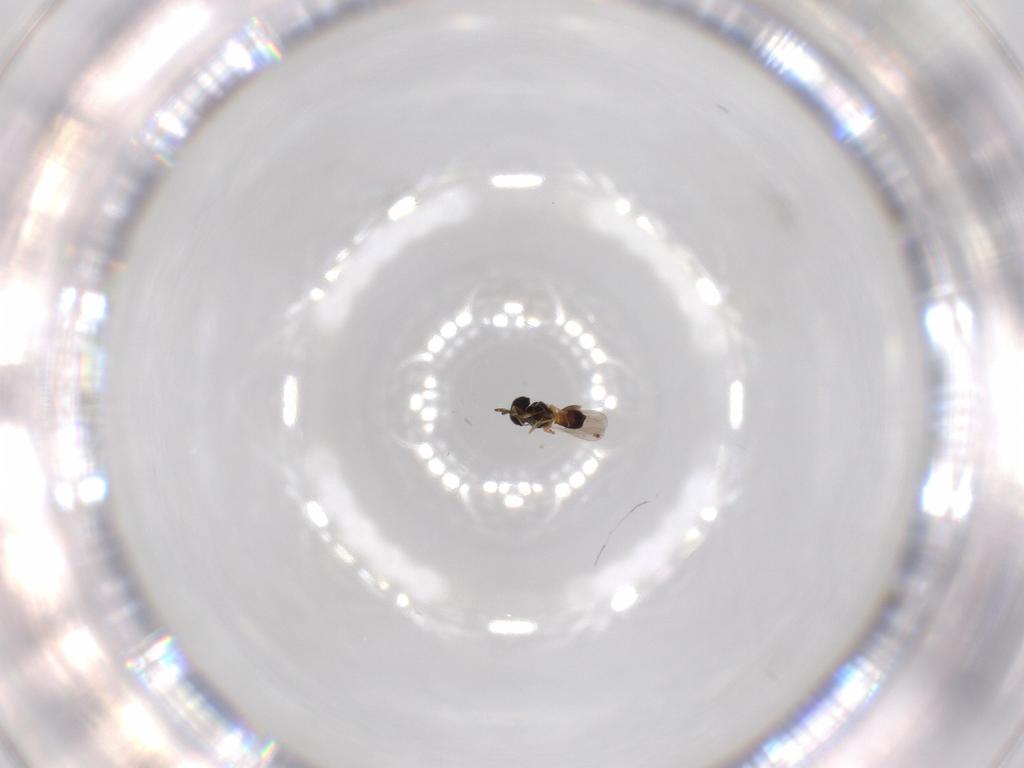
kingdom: Animalia
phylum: Arthropoda
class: Insecta
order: Hymenoptera
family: Scelionidae
